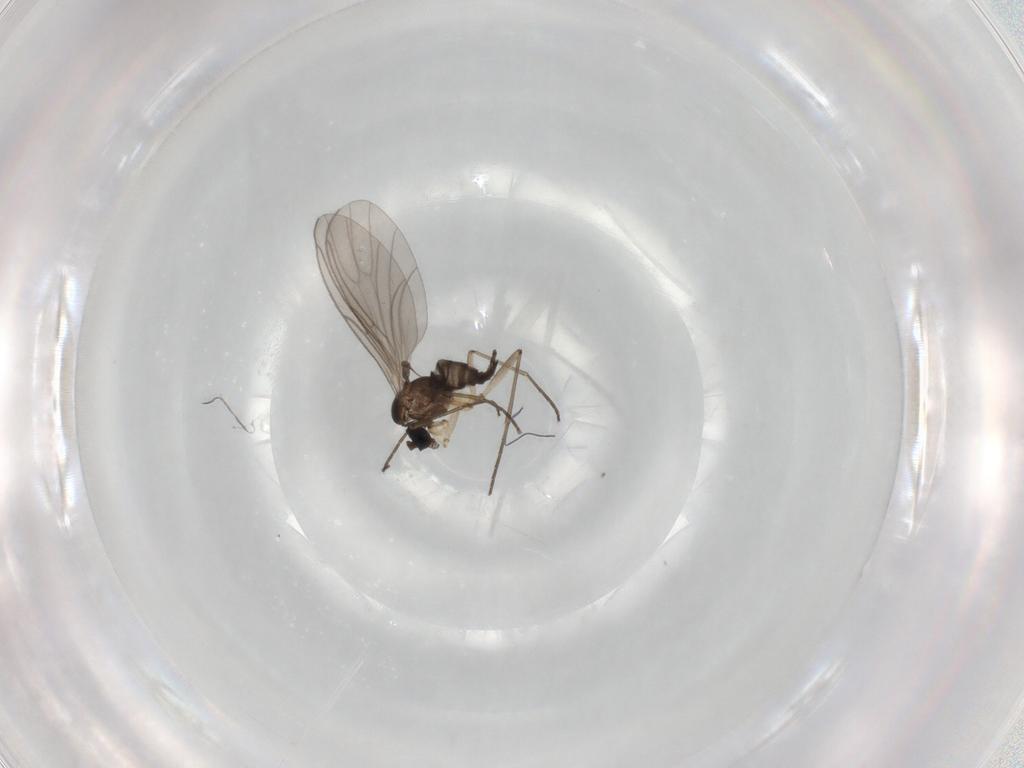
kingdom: Animalia
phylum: Arthropoda
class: Insecta
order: Diptera
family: Sciaridae
